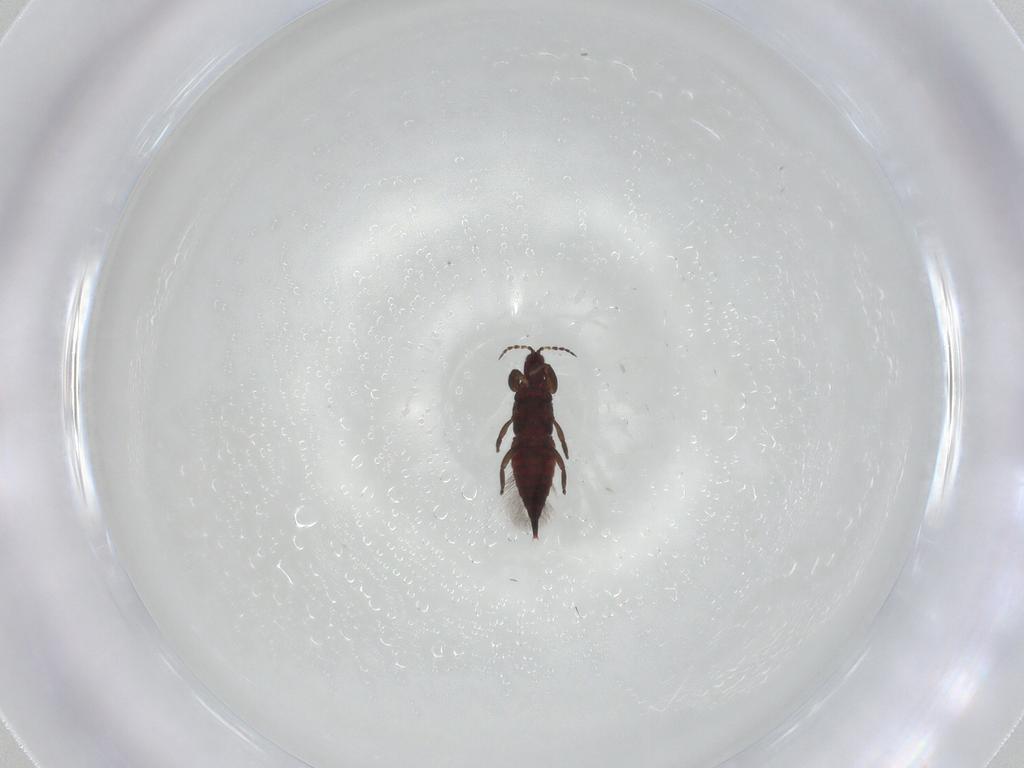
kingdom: Animalia
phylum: Arthropoda
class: Insecta
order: Thysanoptera
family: Phlaeothripidae
